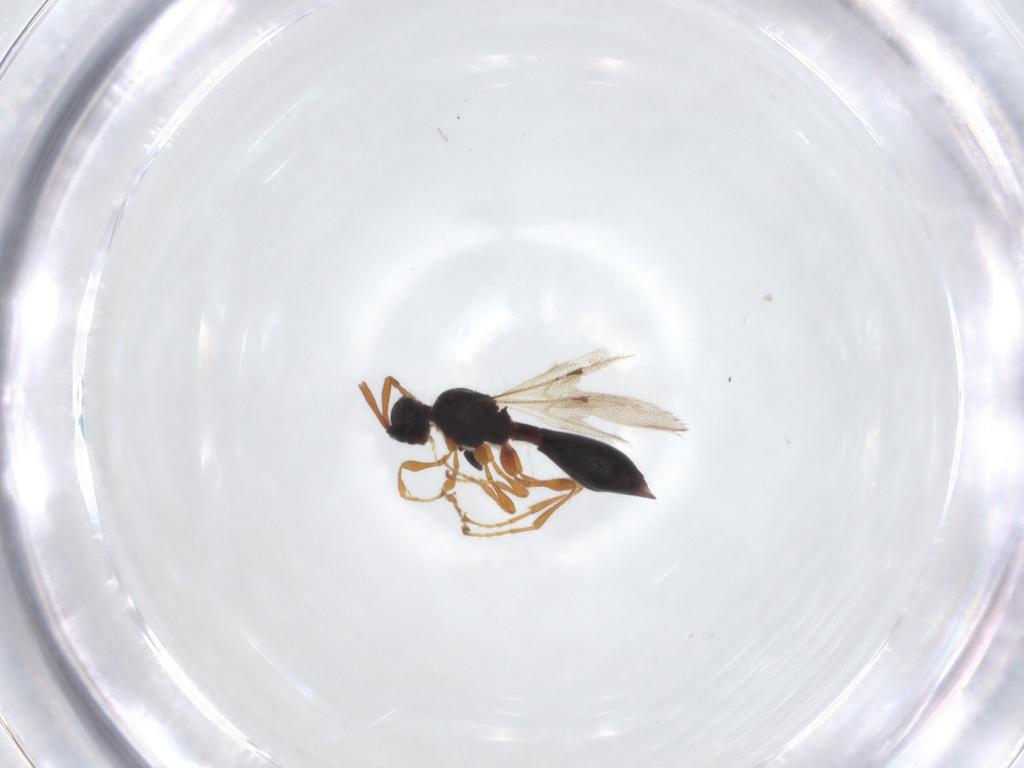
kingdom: Animalia
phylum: Arthropoda
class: Insecta
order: Hymenoptera
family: Diapriidae
